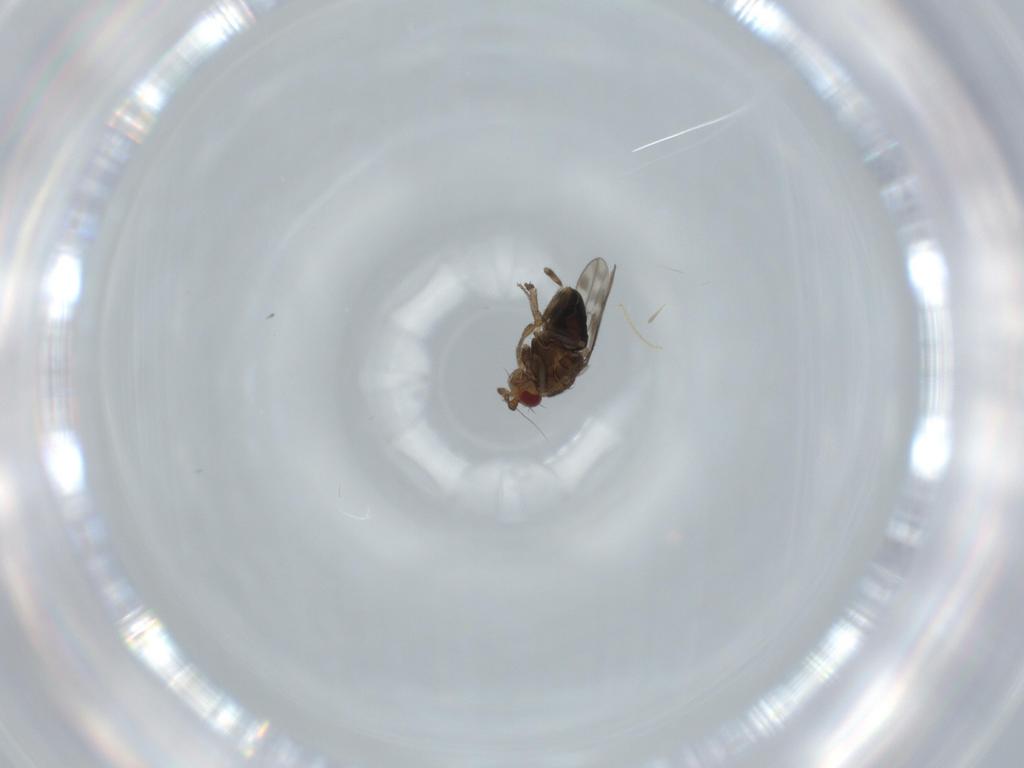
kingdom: Animalia
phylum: Arthropoda
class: Insecta
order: Diptera
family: Sphaeroceridae
